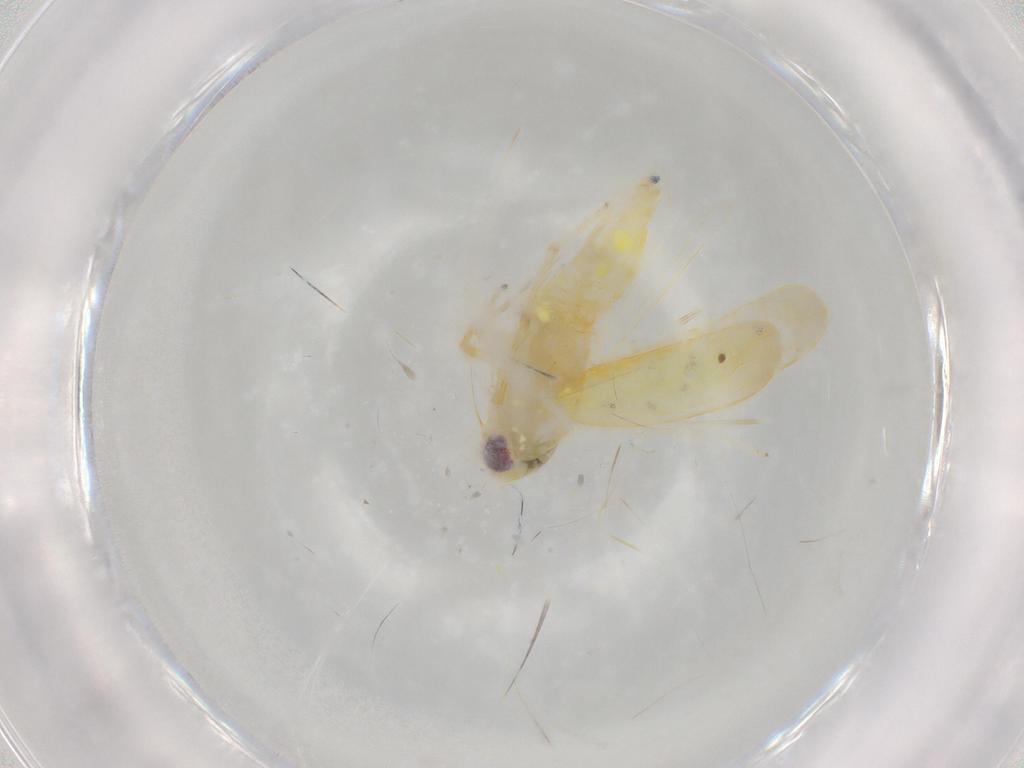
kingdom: Animalia
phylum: Arthropoda
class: Insecta
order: Hemiptera
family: Cicadellidae
